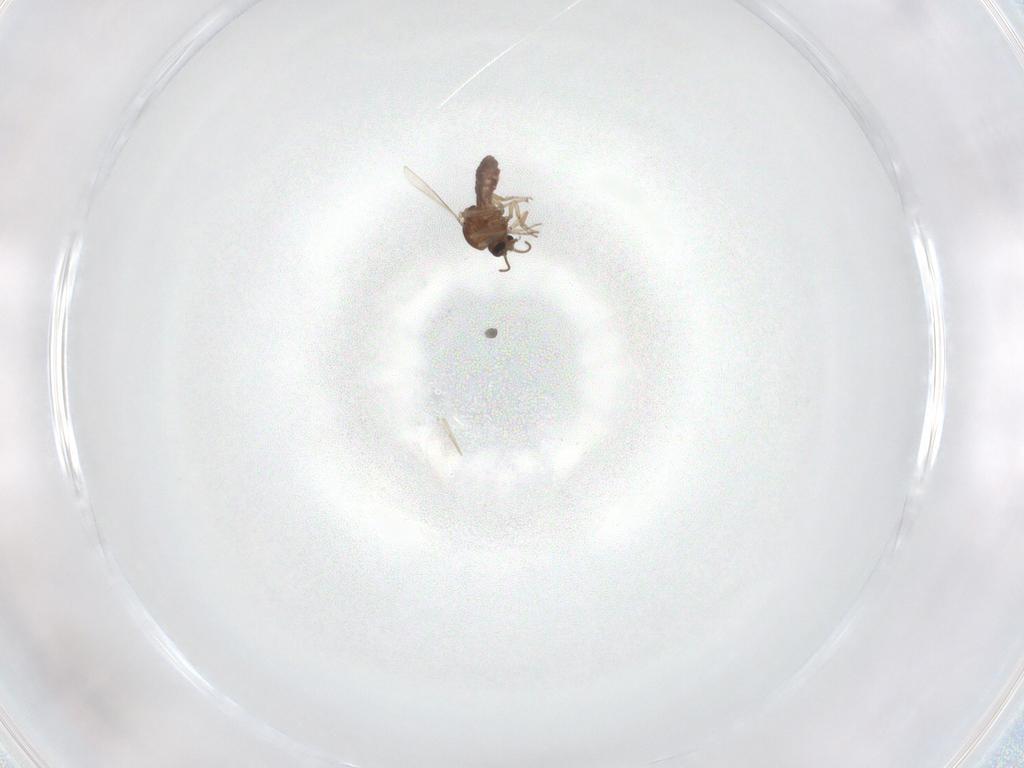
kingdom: Animalia
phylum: Arthropoda
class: Insecta
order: Diptera
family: Ceratopogonidae
